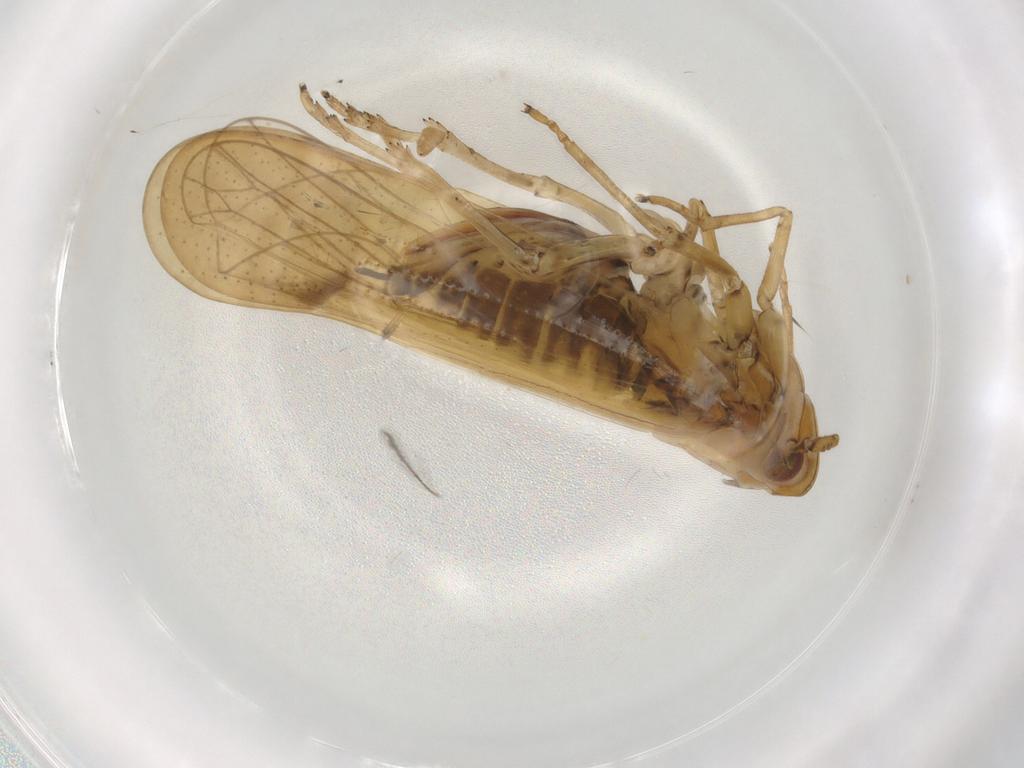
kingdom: Animalia
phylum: Arthropoda
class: Insecta
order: Hemiptera
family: Delphacidae
